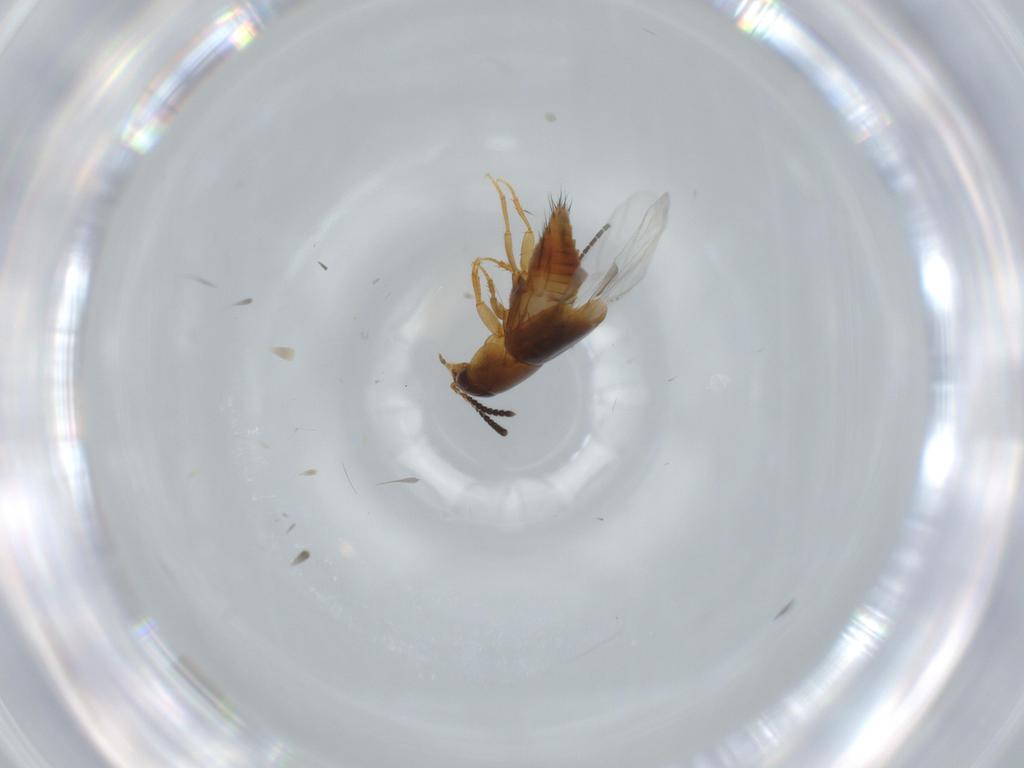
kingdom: Animalia
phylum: Arthropoda
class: Insecta
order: Coleoptera
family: Staphylinidae
